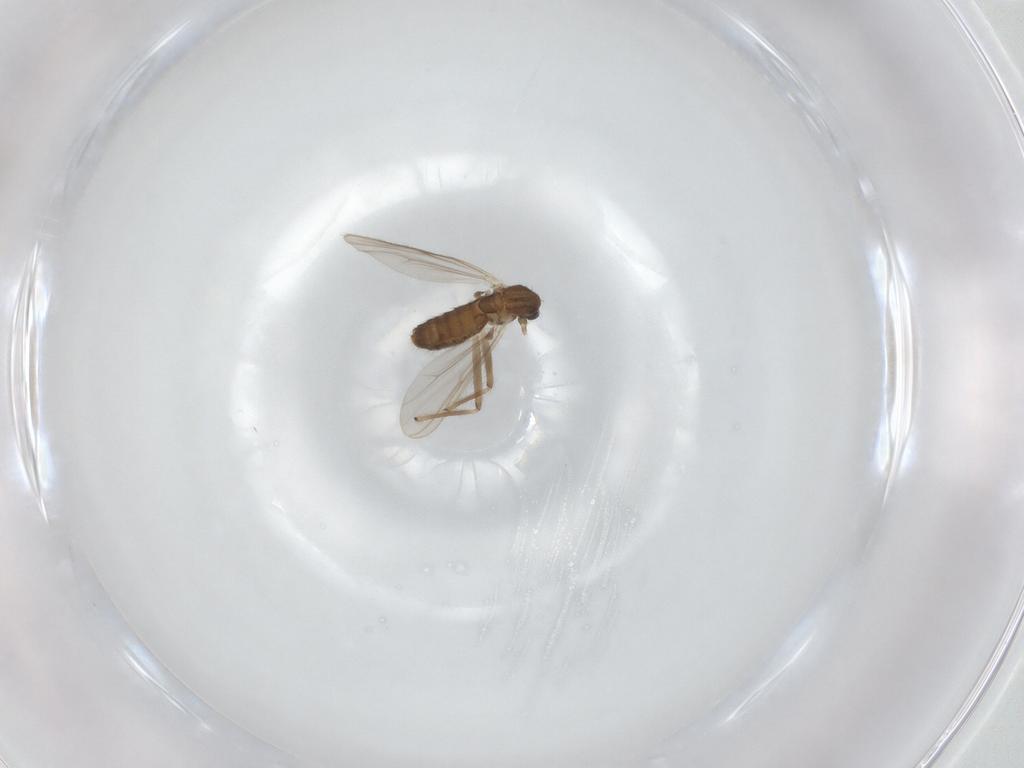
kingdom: Animalia
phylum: Arthropoda
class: Insecta
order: Diptera
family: Chironomidae
